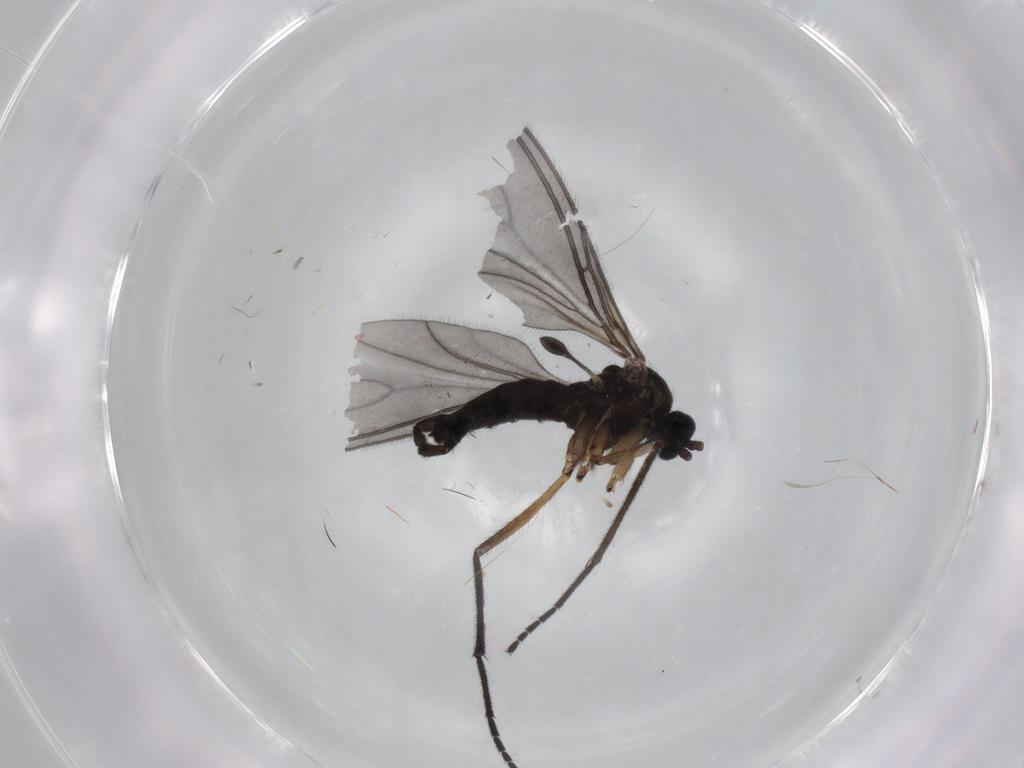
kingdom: Animalia
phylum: Arthropoda
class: Insecta
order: Diptera
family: Sciaridae
